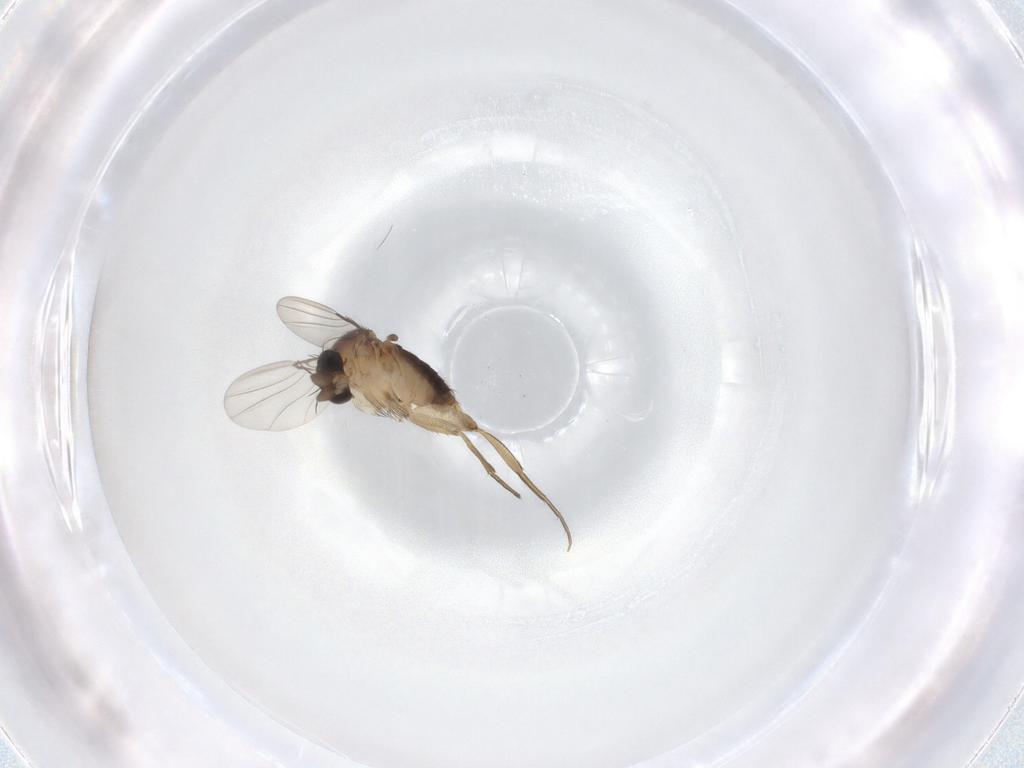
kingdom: Animalia
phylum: Arthropoda
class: Insecta
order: Diptera
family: Phoridae
